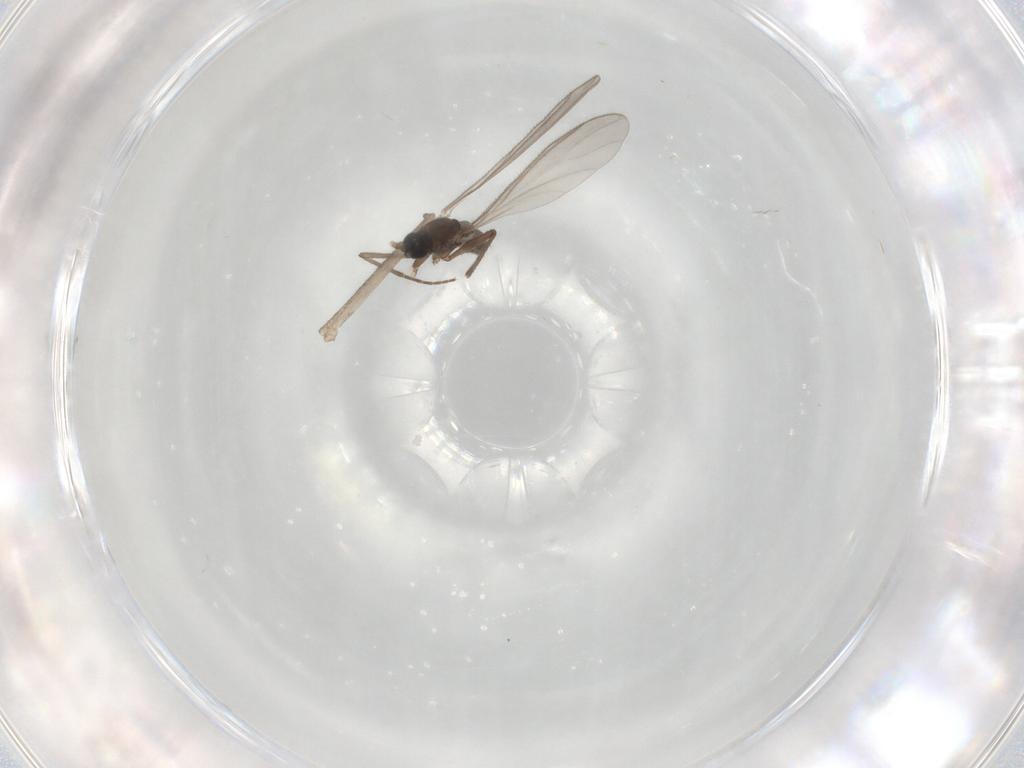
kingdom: Animalia
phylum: Arthropoda
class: Insecta
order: Diptera
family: Sciaridae
